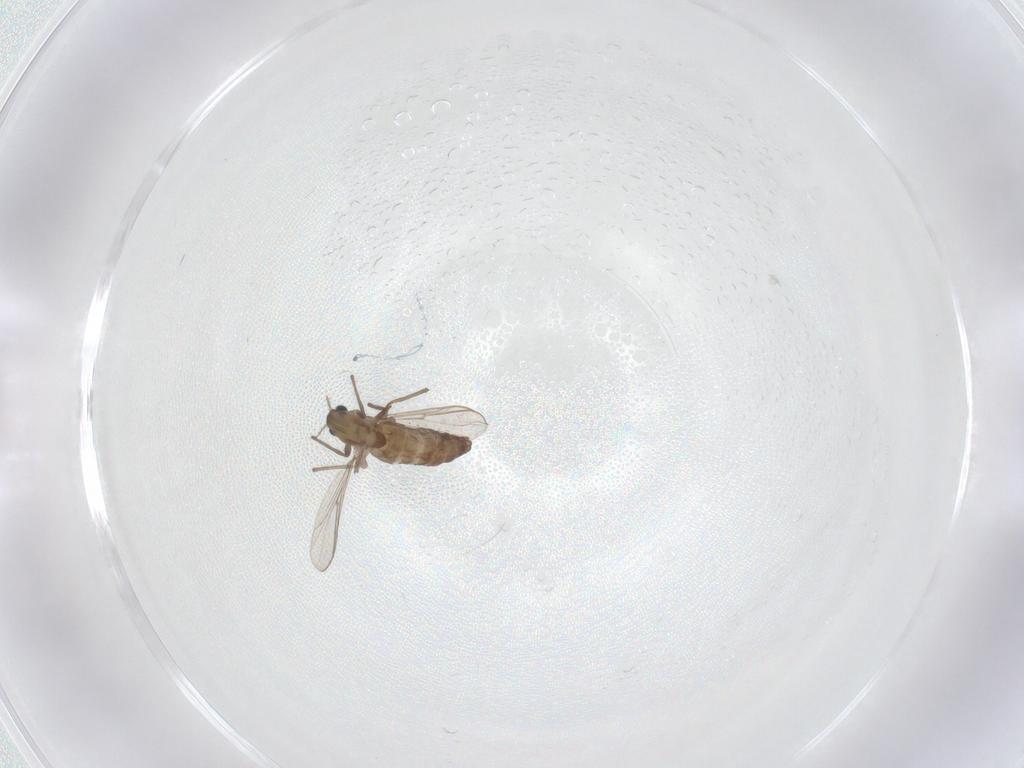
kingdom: Animalia
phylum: Arthropoda
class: Insecta
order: Diptera
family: Chironomidae
